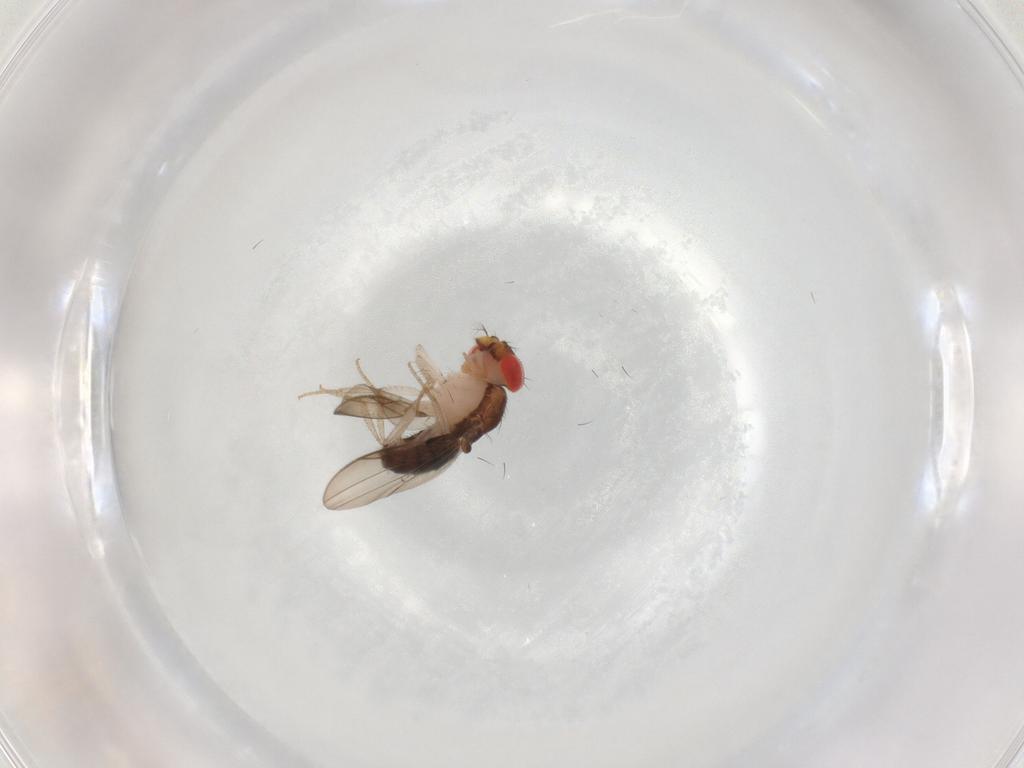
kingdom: Animalia
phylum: Arthropoda
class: Insecta
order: Diptera
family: Drosophilidae
